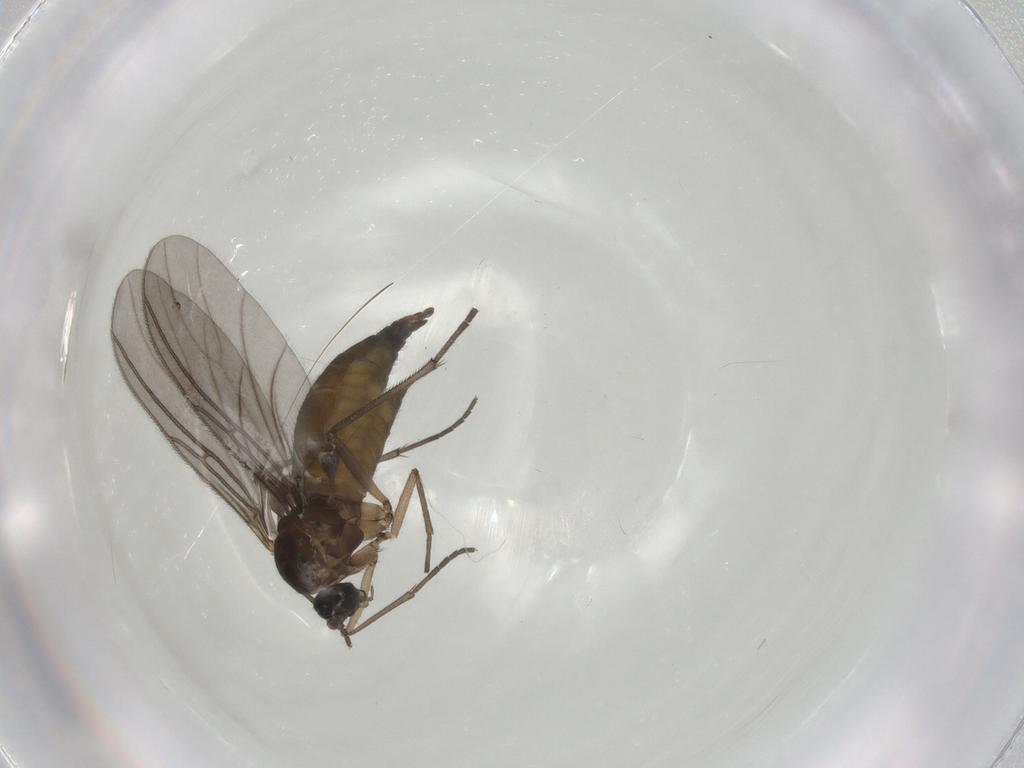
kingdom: Animalia
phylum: Arthropoda
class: Insecta
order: Diptera
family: Sciaridae
